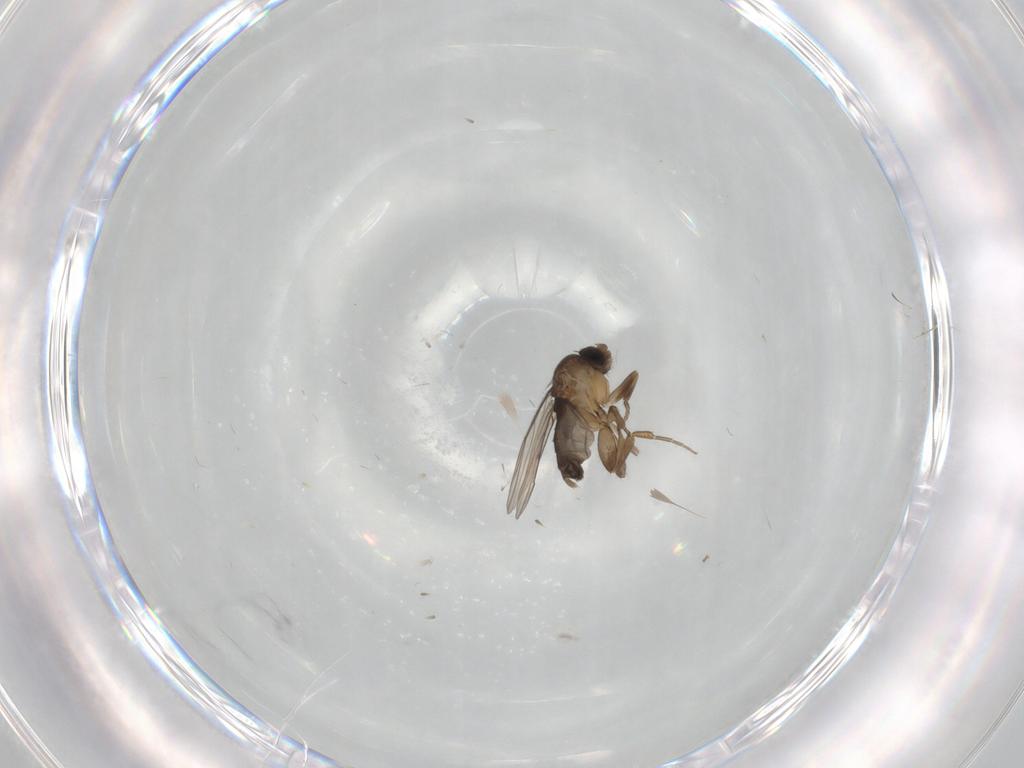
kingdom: Animalia
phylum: Arthropoda
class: Insecta
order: Diptera
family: Phoridae
